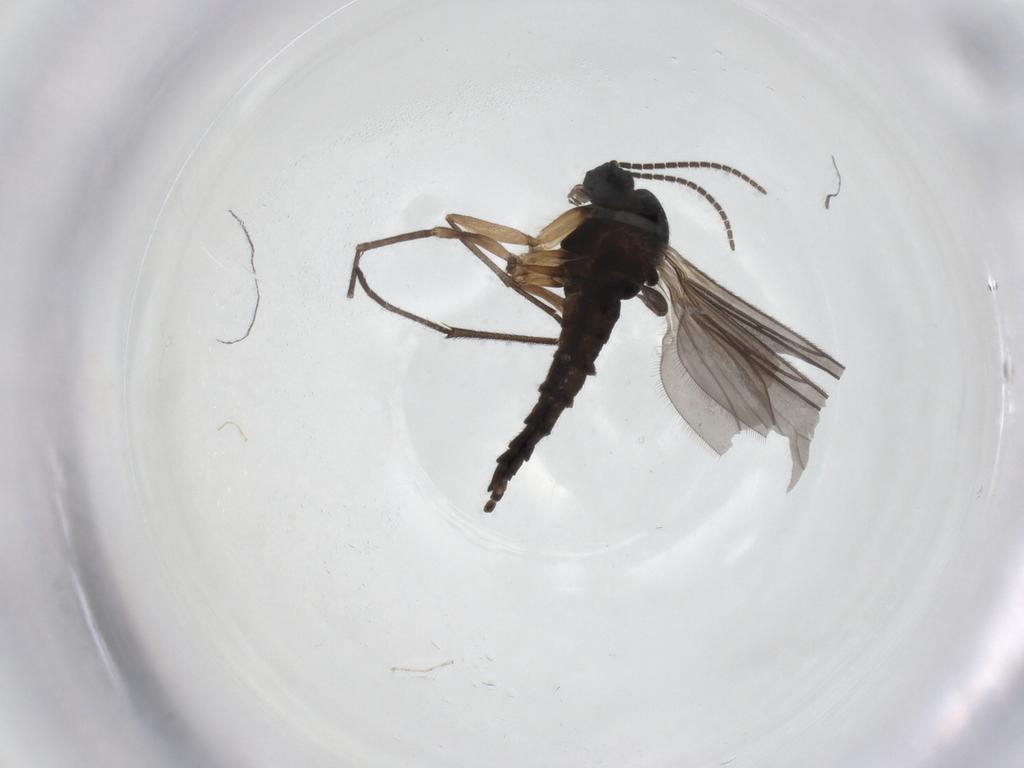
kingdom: Animalia
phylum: Arthropoda
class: Insecta
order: Diptera
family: Sciaridae
